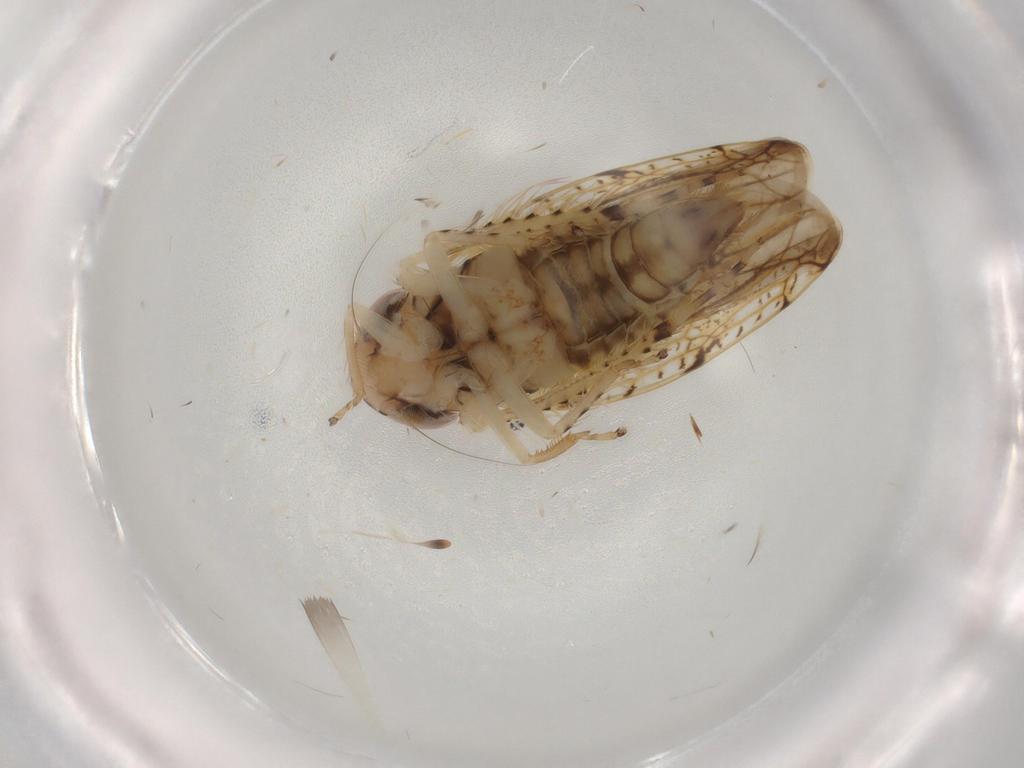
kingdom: Animalia
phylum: Arthropoda
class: Insecta
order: Hemiptera
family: Cicadellidae
